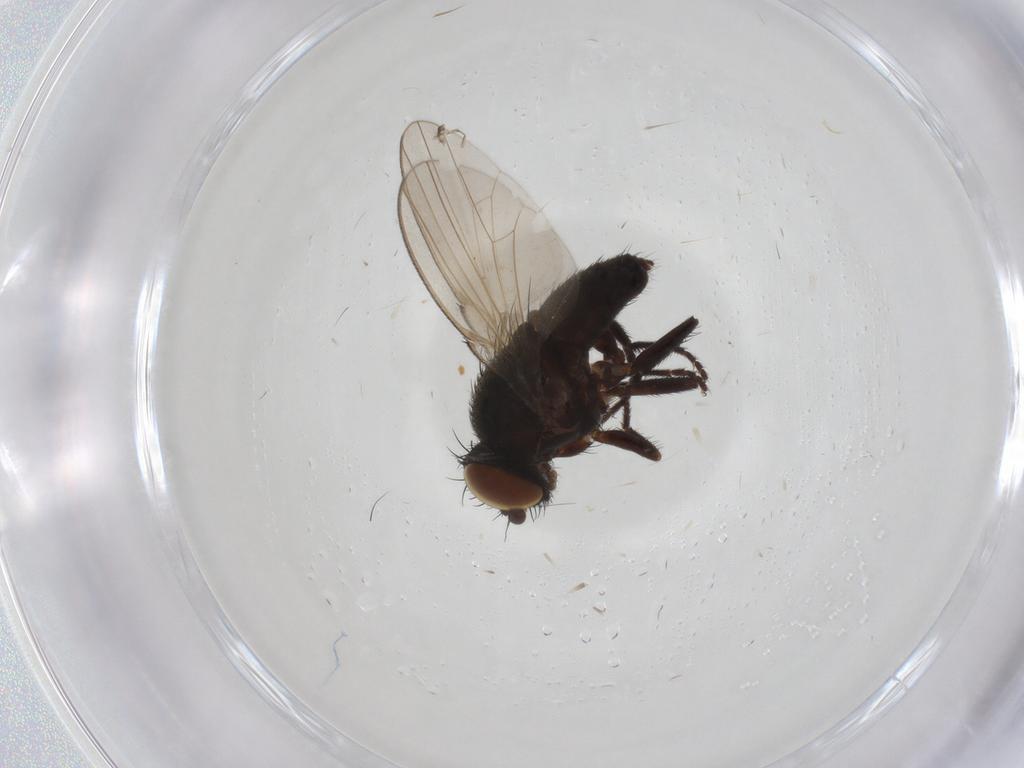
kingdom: Animalia
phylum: Arthropoda
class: Insecta
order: Diptera
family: Milichiidae
